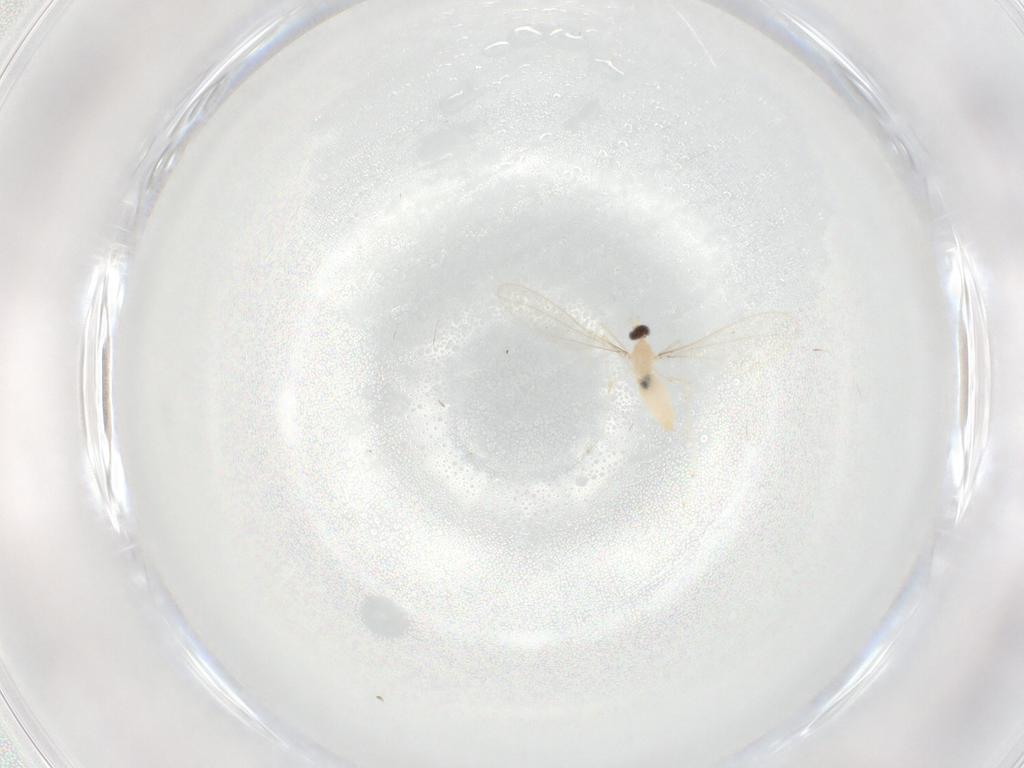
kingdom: Animalia
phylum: Arthropoda
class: Insecta
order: Diptera
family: Cecidomyiidae
